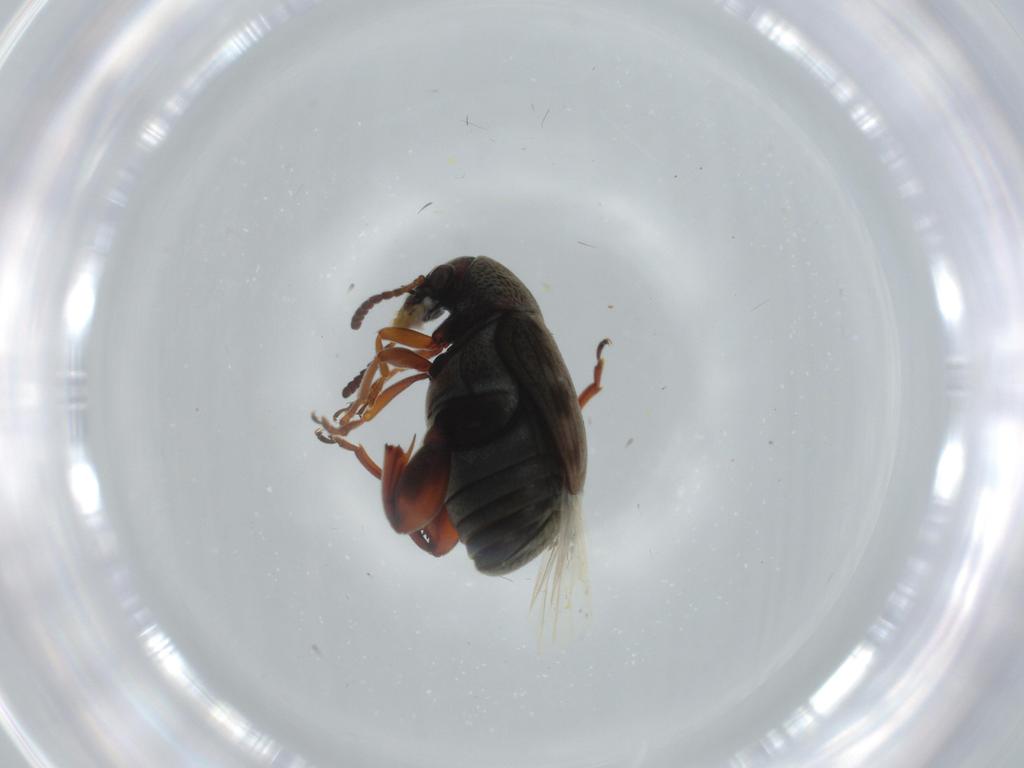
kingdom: Animalia
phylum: Arthropoda
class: Insecta
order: Coleoptera
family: Chrysomelidae
